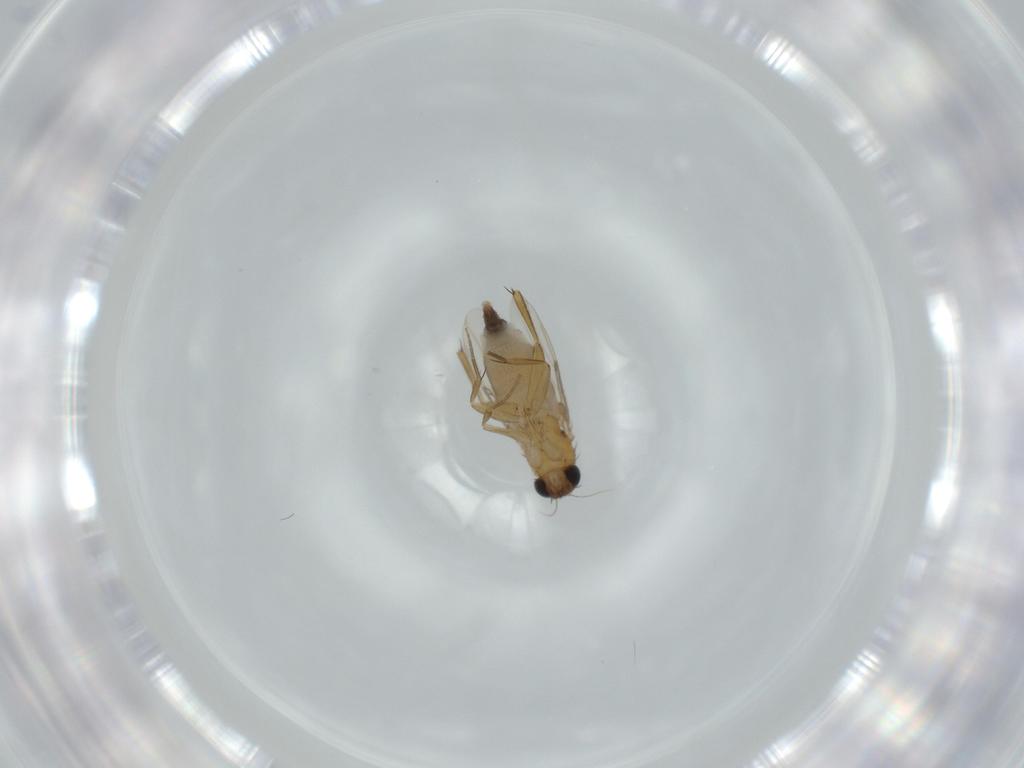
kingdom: Animalia
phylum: Arthropoda
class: Insecta
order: Diptera
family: Phoridae
